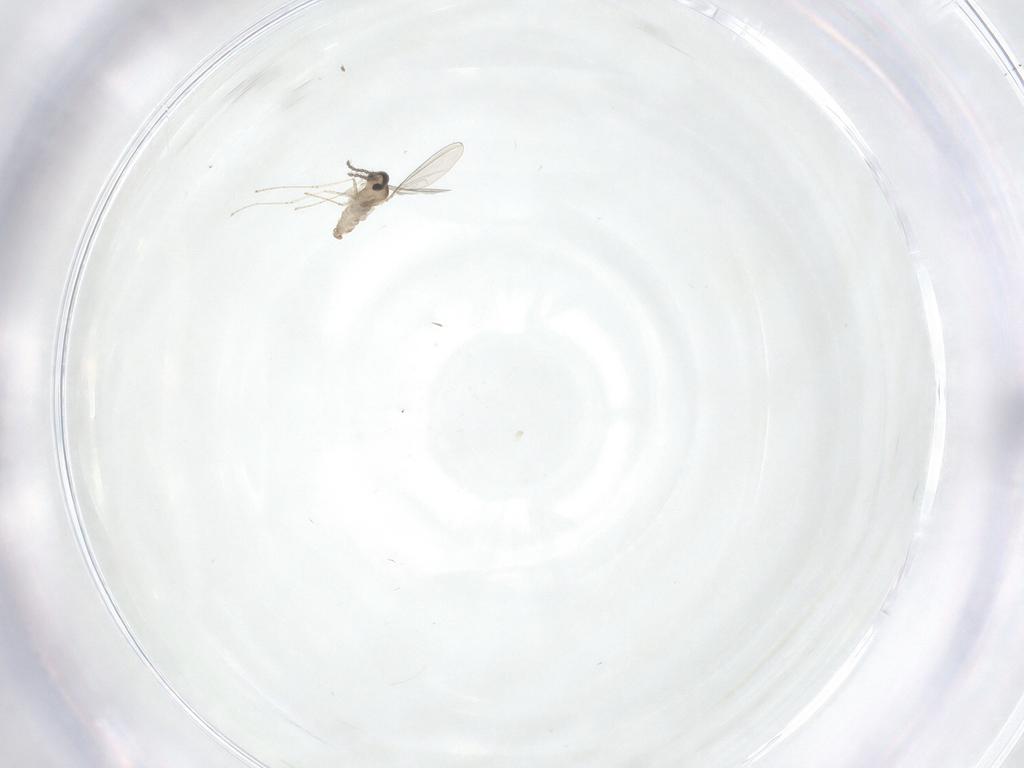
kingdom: Animalia
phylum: Arthropoda
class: Insecta
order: Diptera
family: Chironomidae
